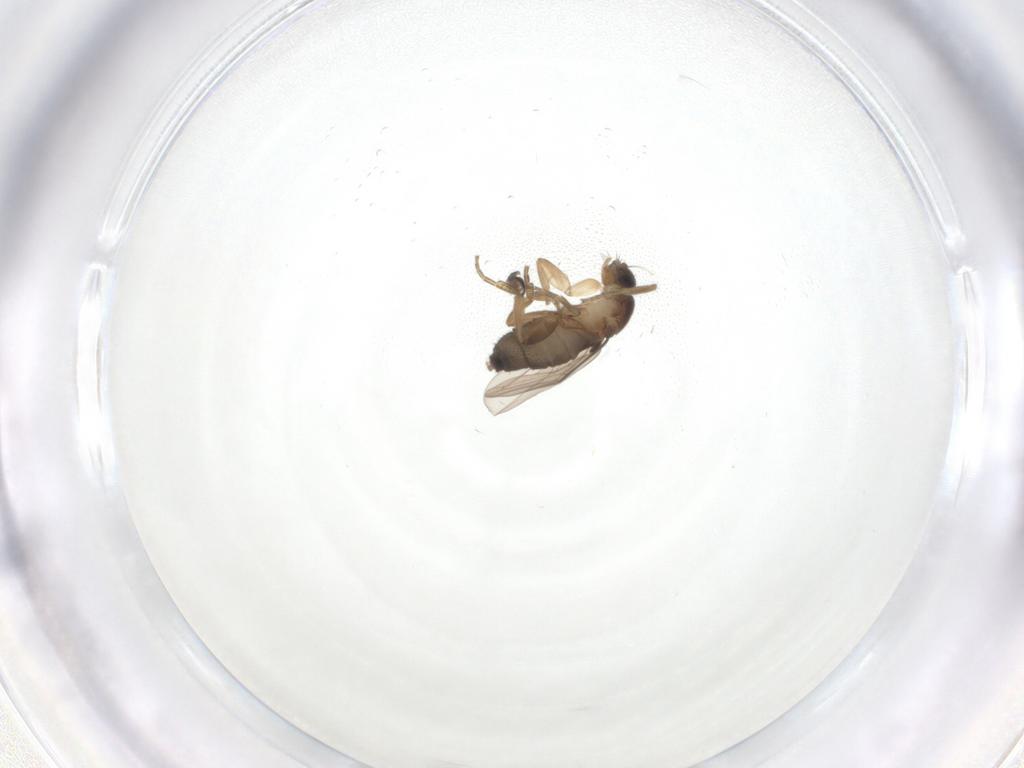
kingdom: Animalia
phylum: Arthropoda
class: Insecta
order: Diptera
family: Phoridae
